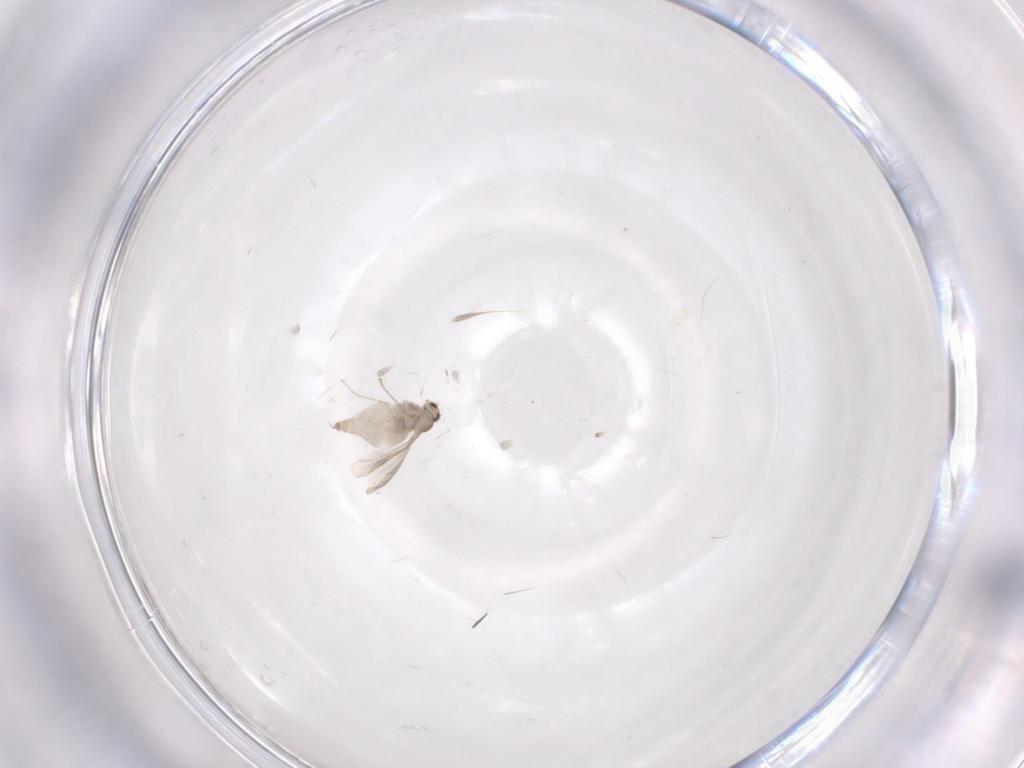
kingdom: Animalia
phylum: Arthropoda
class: Insecta
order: Diptera
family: Cecidomyiidae
